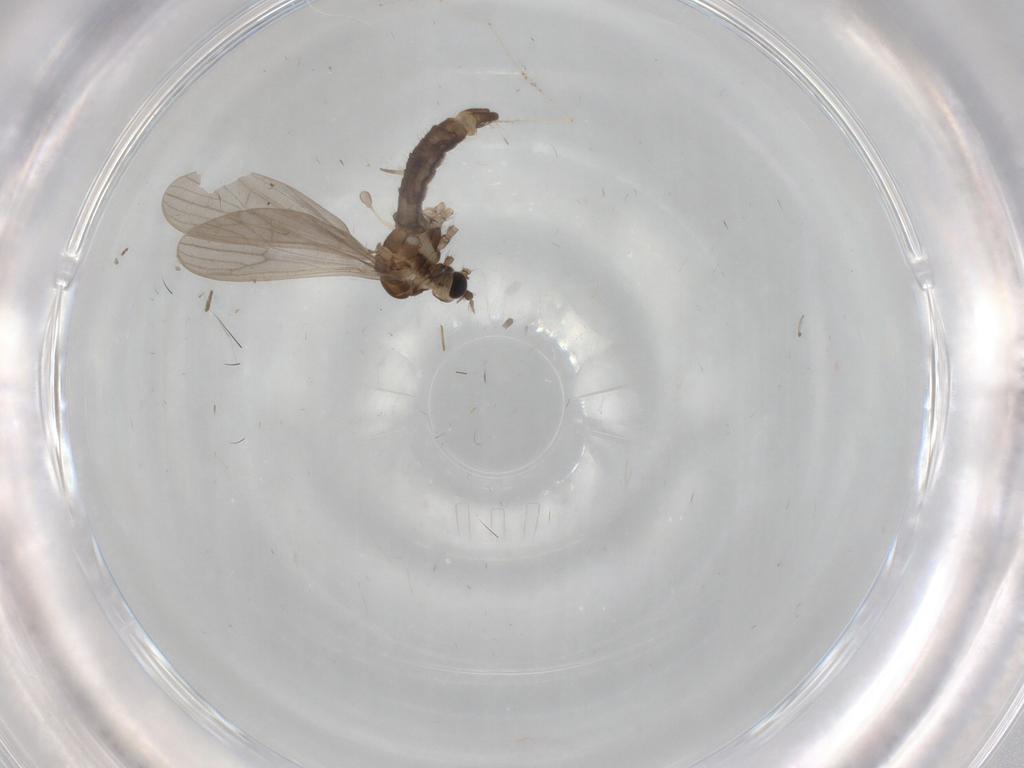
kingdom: Animalia
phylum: Arthropoda
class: Insecta
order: Diptera
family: Limoniidae
